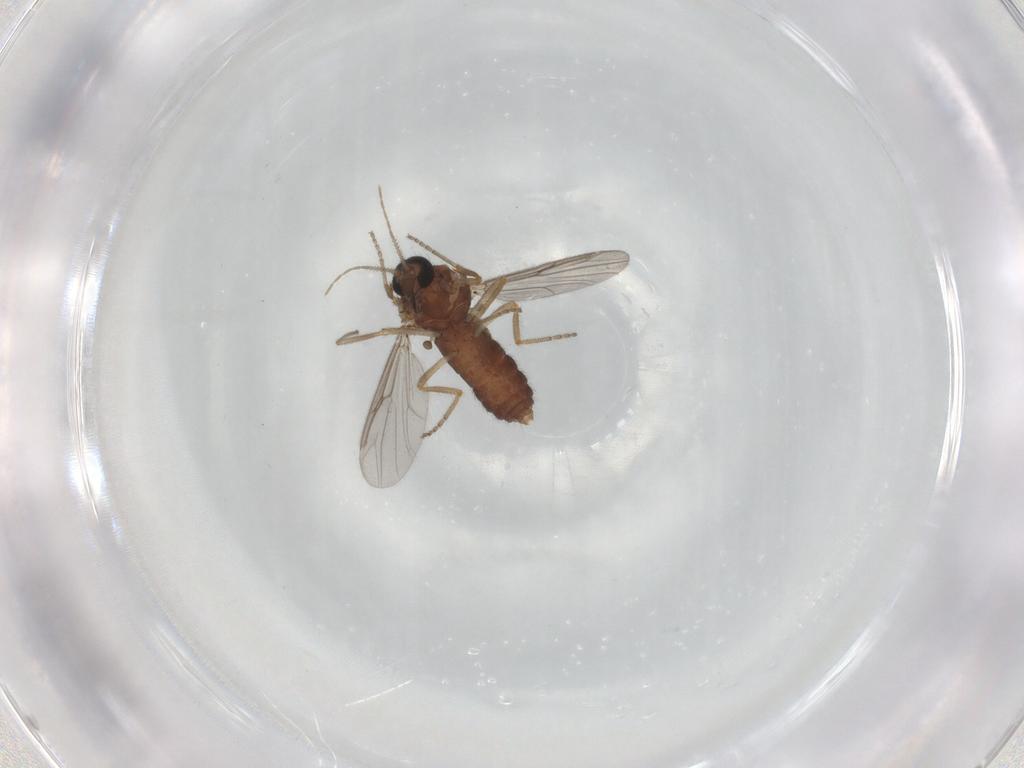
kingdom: Animalia
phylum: Arthropoda
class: Insecta
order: Diptera
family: Ceratopogonidae
